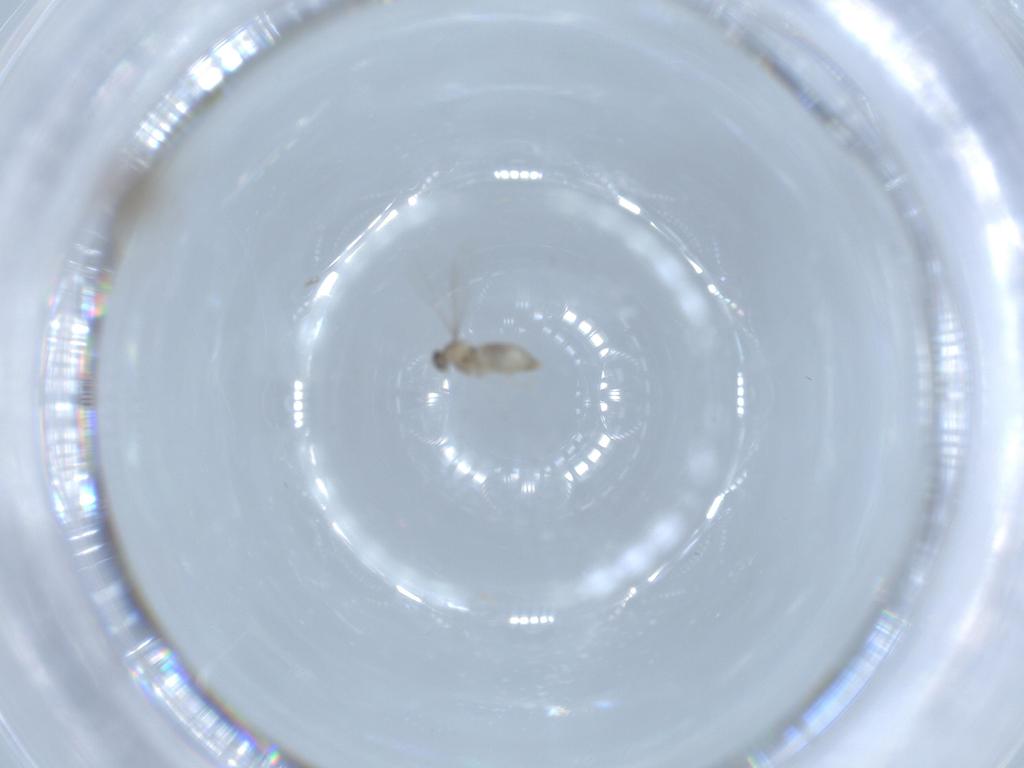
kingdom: Animalia
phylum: Arthropoda
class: Insecta
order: Diptera
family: Cecidomyiidae
